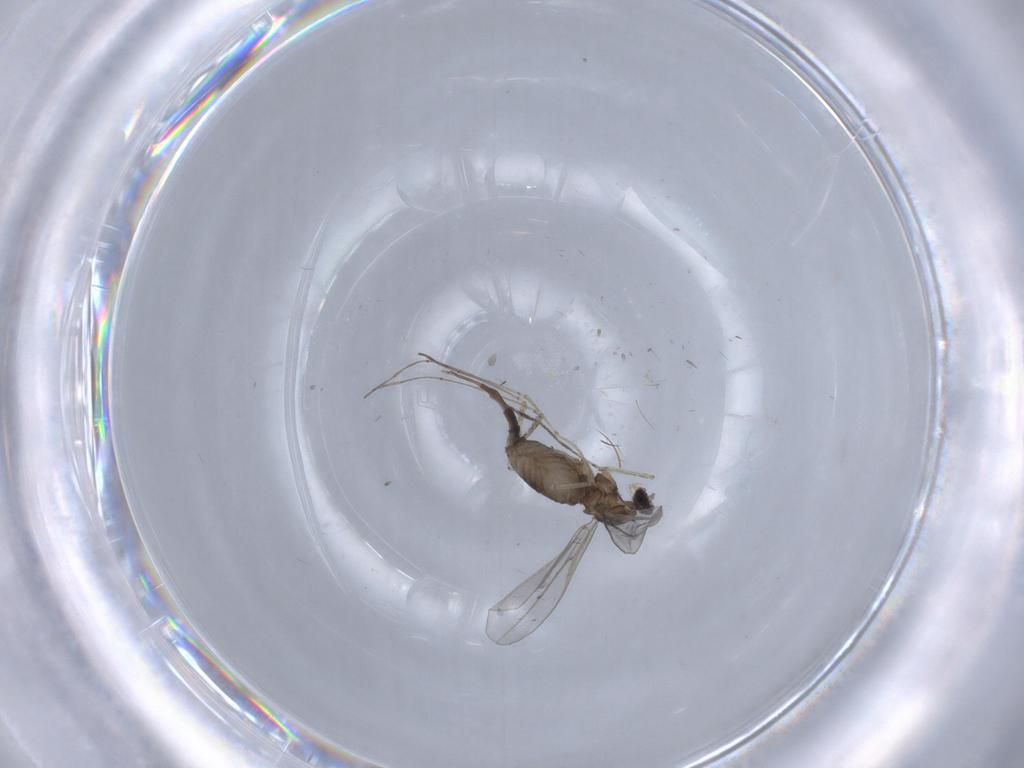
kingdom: Animalia
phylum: Arthropoda
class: Insecta
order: Diptera
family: Cecidomyiidae
